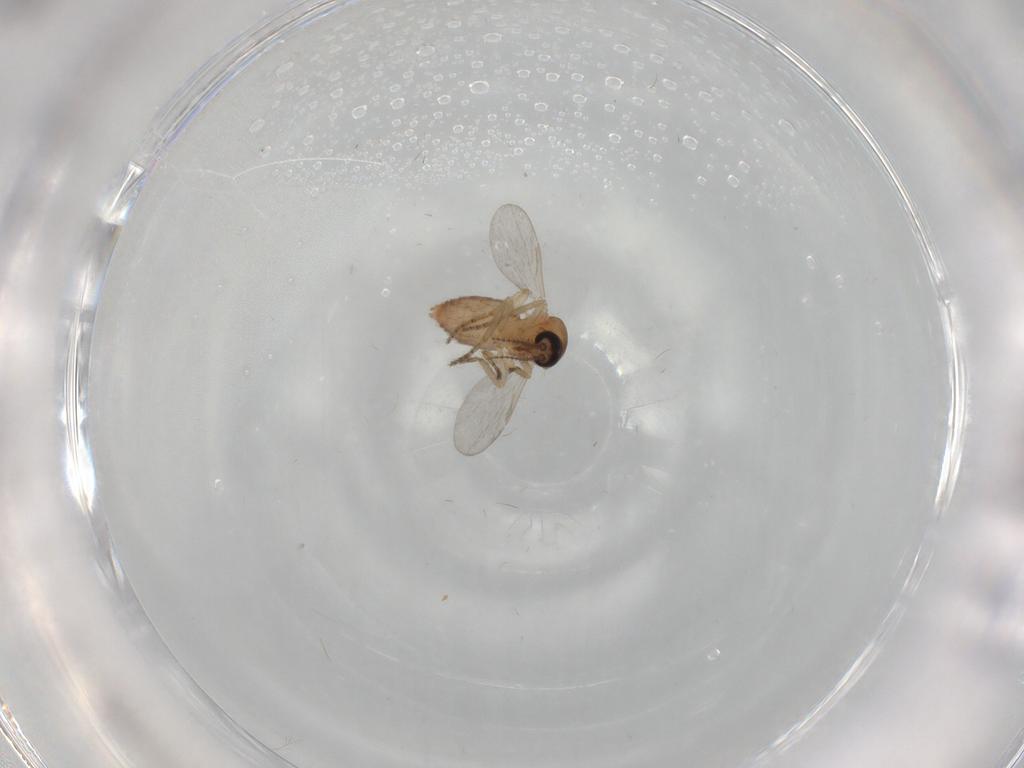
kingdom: Animalia
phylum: Arthropoda
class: Insecta
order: Diptera
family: Ceratopogonidae
